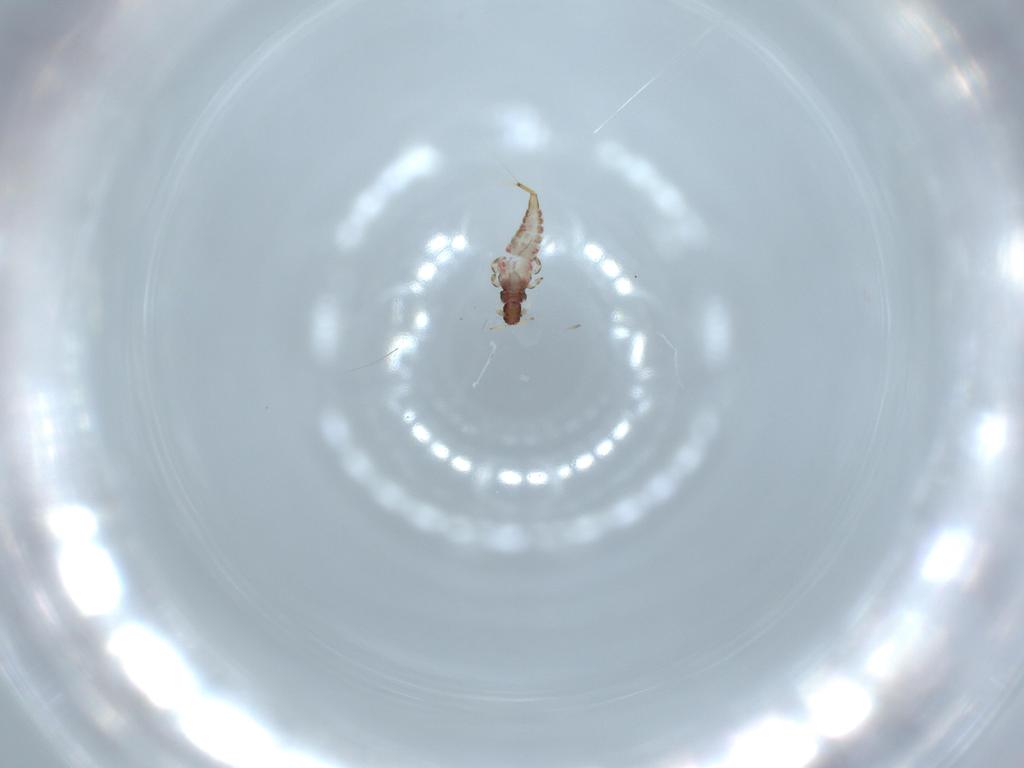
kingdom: Animalia
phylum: Arthropoda
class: Insecta
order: Thysanoptera
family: Phlaeothripidae
